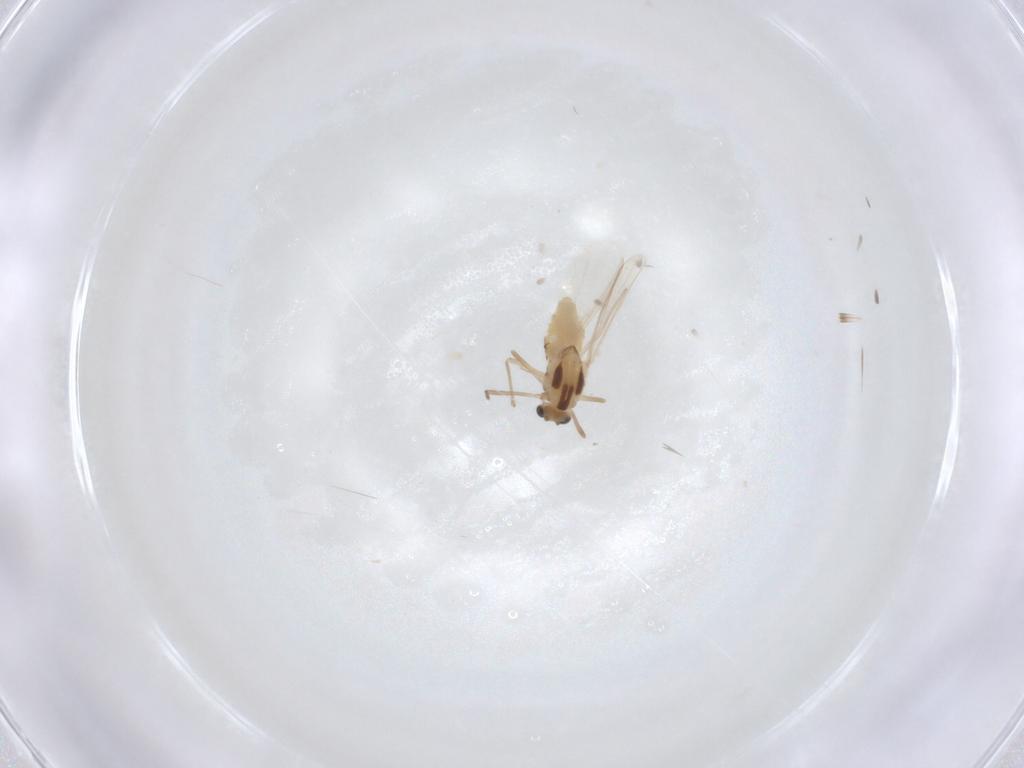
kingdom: Animalia
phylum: Arthropoda
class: Insecta
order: Diptera
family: Chironomidae
